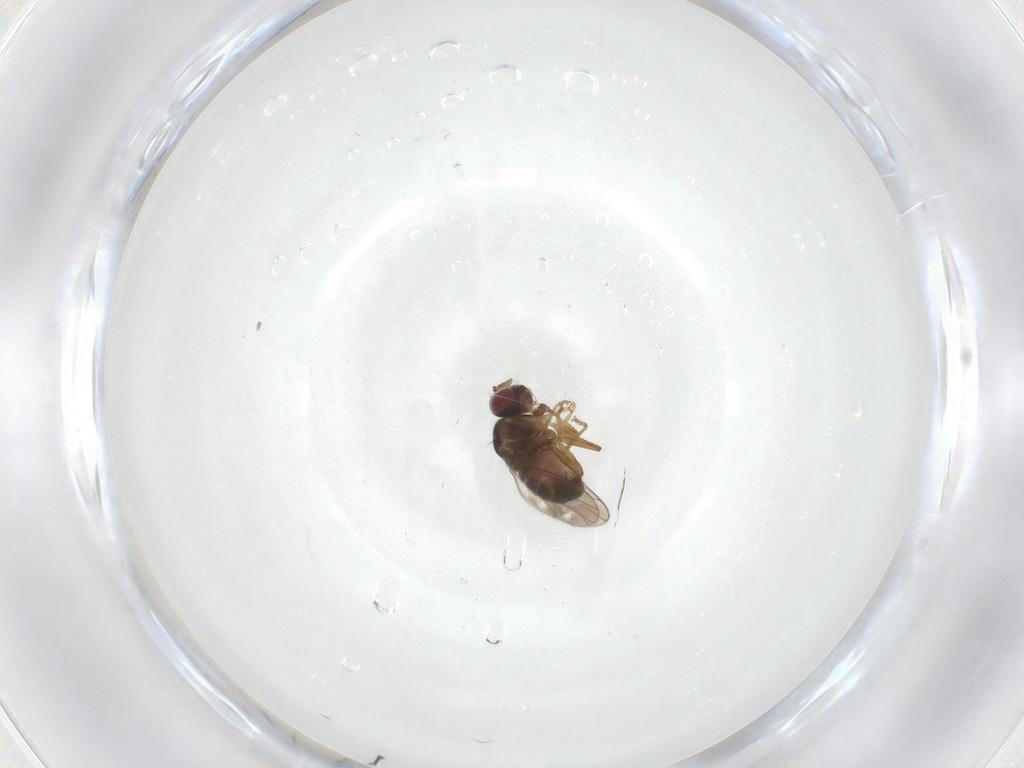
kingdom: Animalia
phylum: Arthropoda
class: Insecta
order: Diptera
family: Ephydridae
